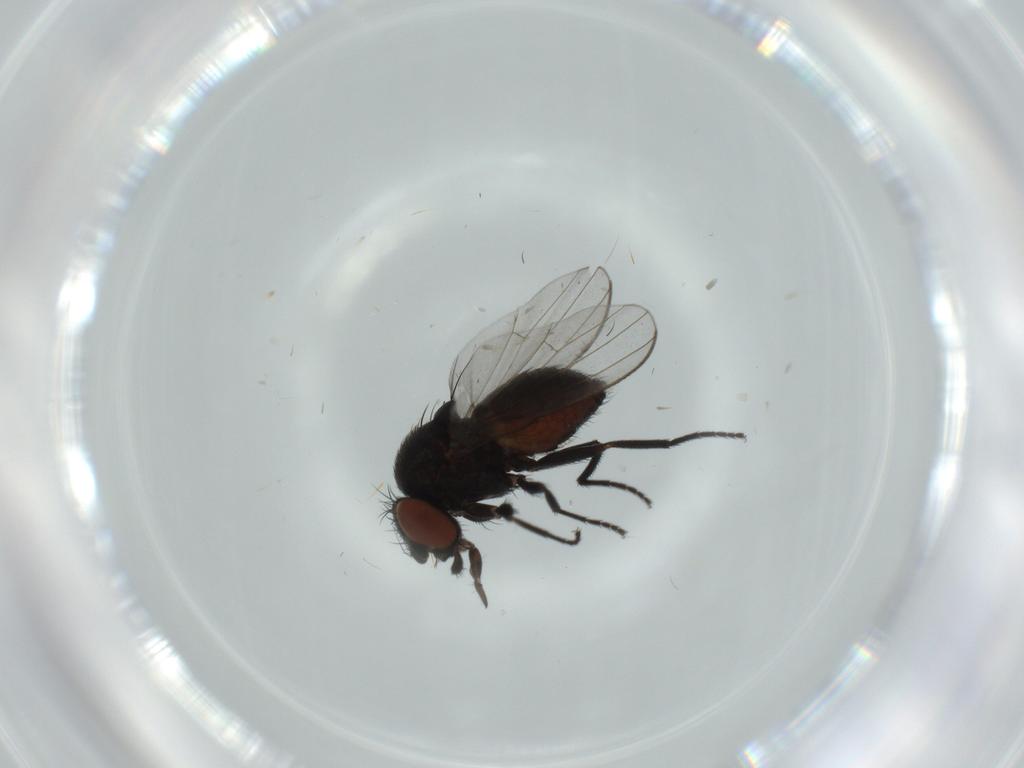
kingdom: Animalia
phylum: Arthropoda
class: Insecta
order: Diptera
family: Milichiidae
